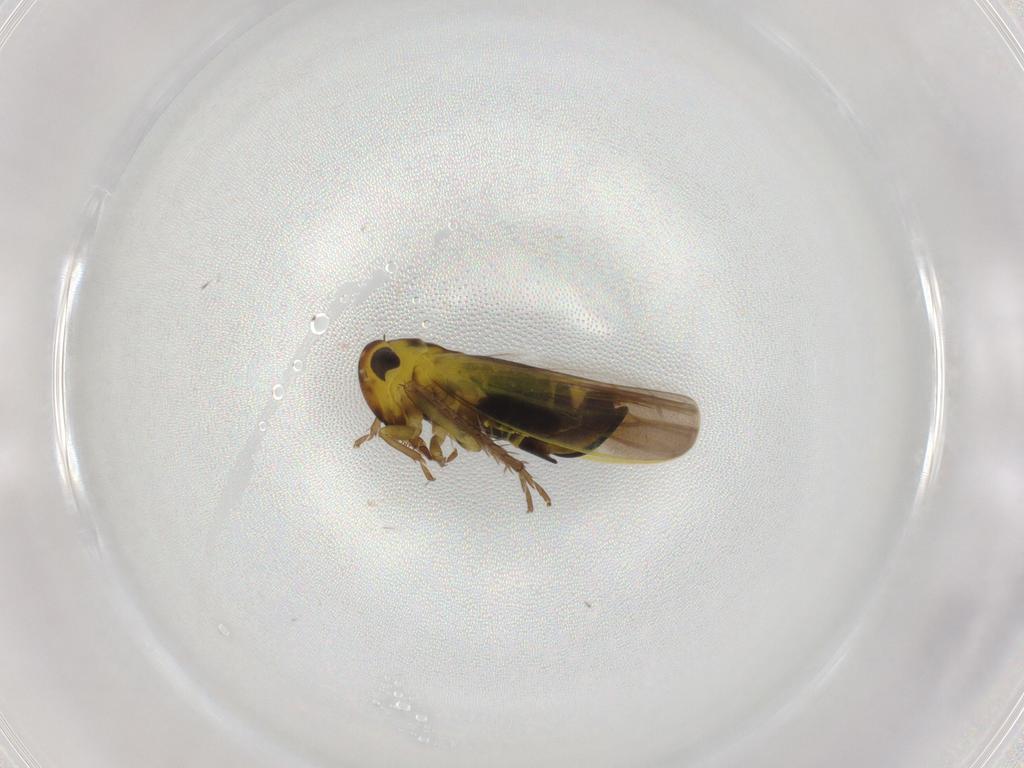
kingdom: Animalia
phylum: Arthropoda
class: Insecta
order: Hemiptera
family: Cicadellidae
